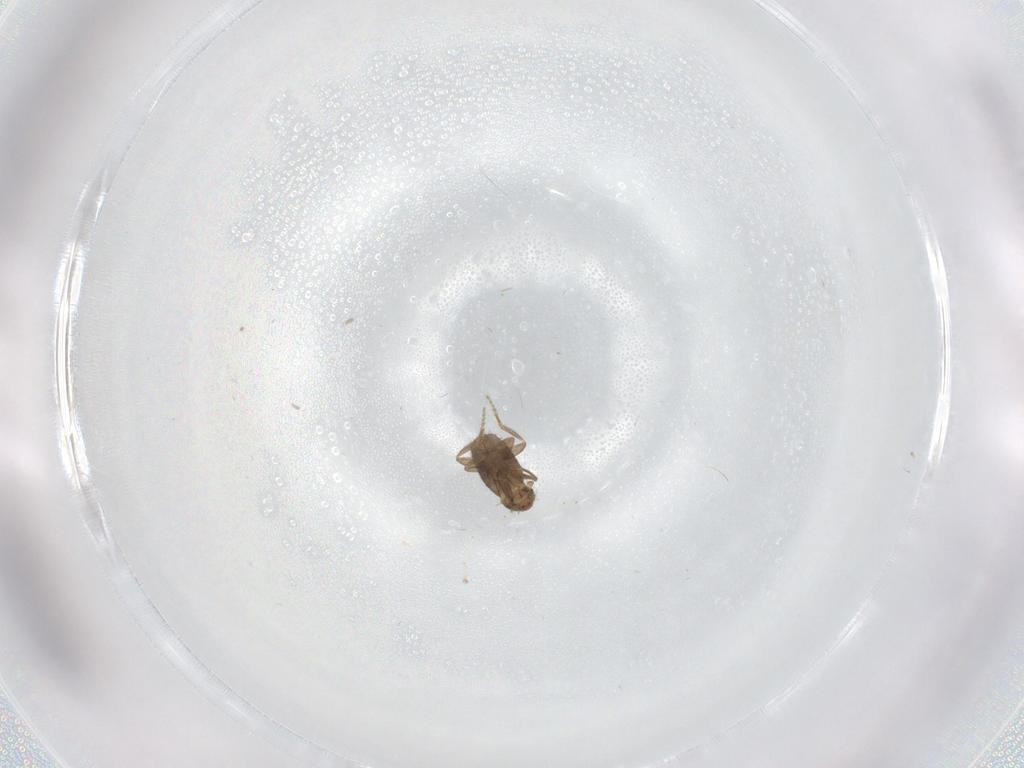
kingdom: Animalia
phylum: Arthropoda
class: Insecta
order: Diptera
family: Phoridae
